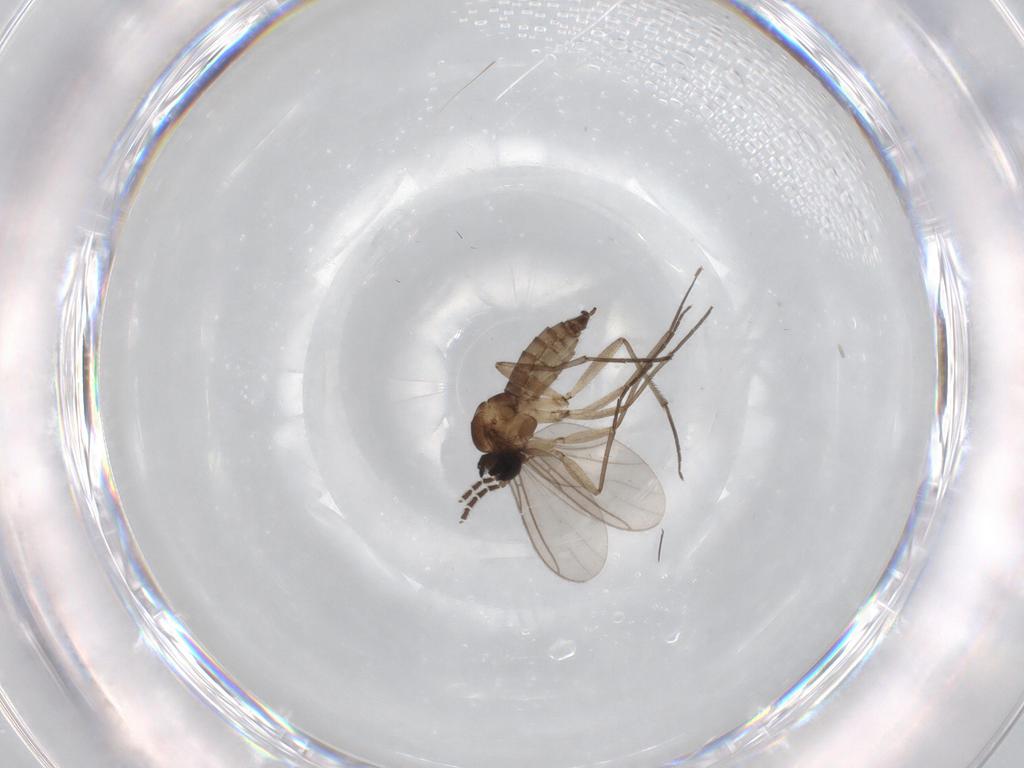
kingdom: Animalia
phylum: Arthropoda
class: Insecta
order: Diptera
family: Sciaridae
